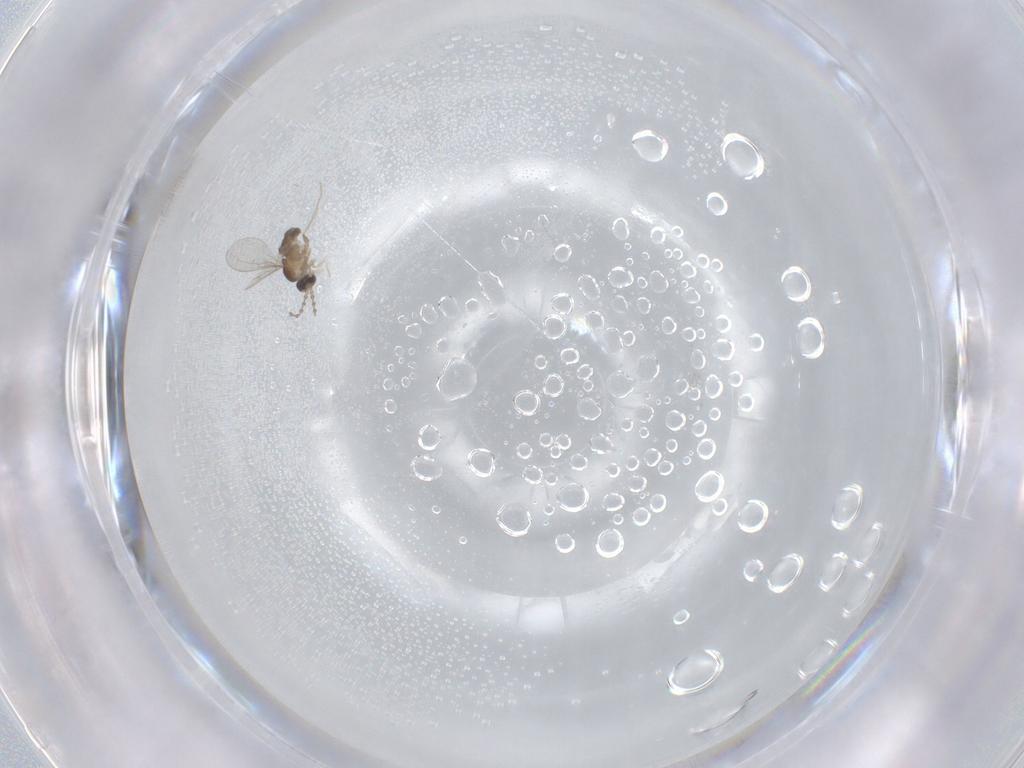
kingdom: Animalia
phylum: Arthropoda
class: Insecta
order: Diptera
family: Cecidomyiidae
